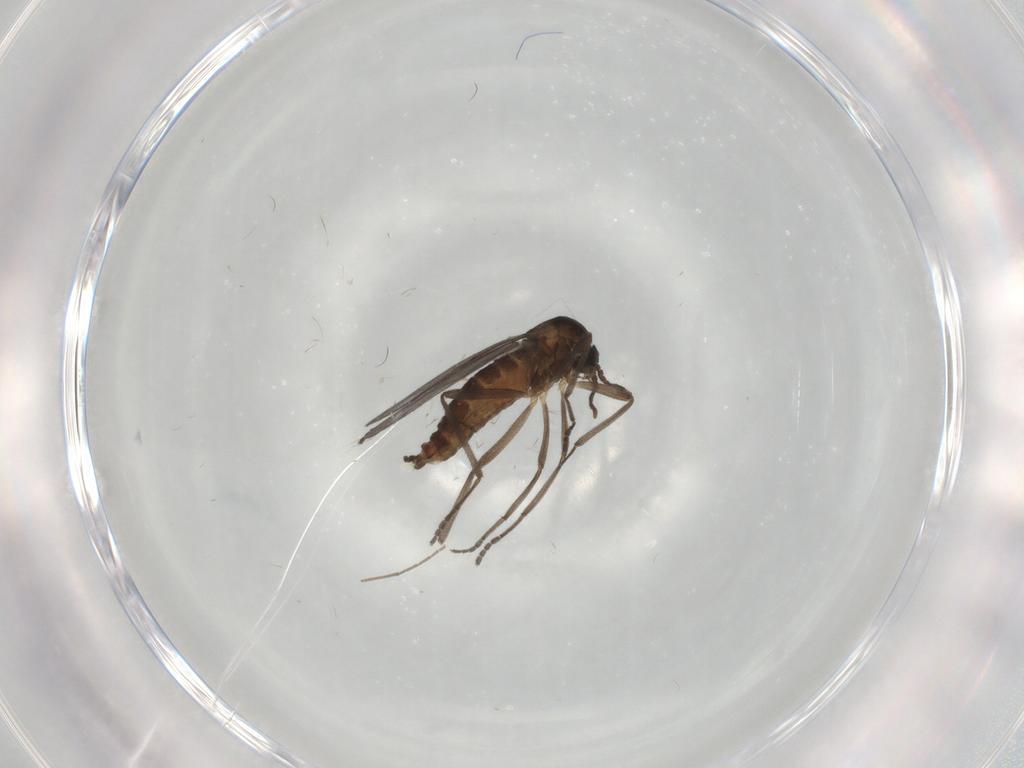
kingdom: Animalia
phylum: Arthropoda
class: Insecta
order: Diptera
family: Cecidomyiidae
